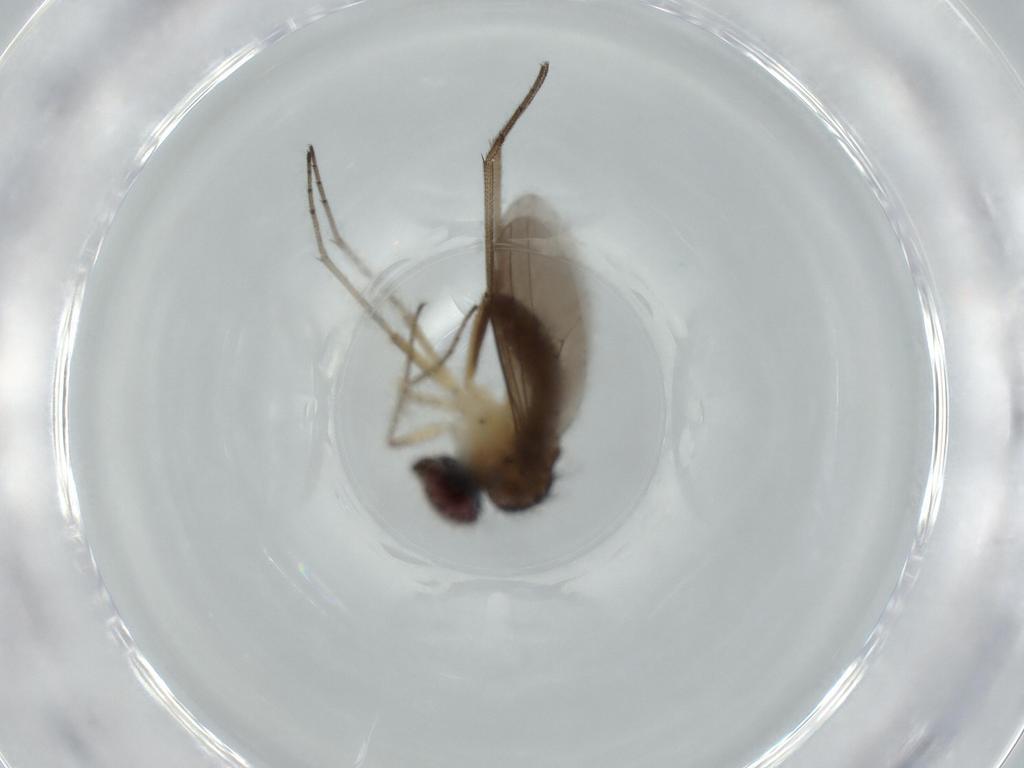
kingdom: Animalia
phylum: Arthropoda
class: Insecta
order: Diptera
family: Dolichopodidae
